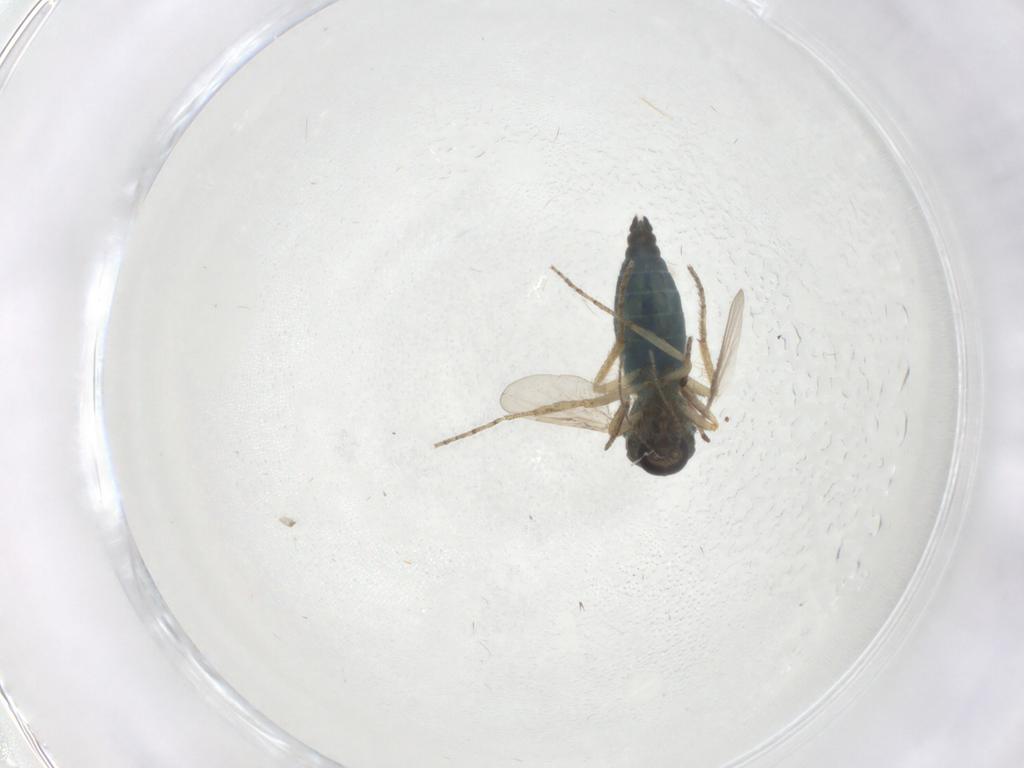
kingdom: Animalia
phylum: Arthropoda
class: Insecta
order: Diptera
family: Ceratopogonidae
